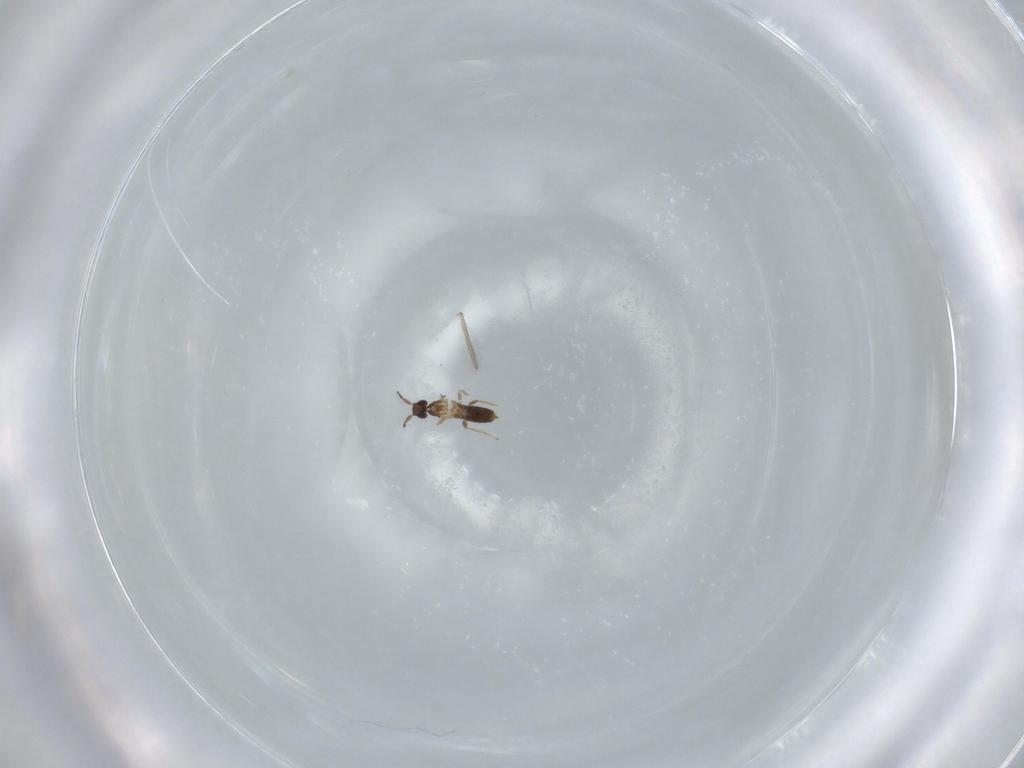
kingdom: Animalia
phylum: Arthropoda
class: Insecta
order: Hymenoptera
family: Mymaridae
